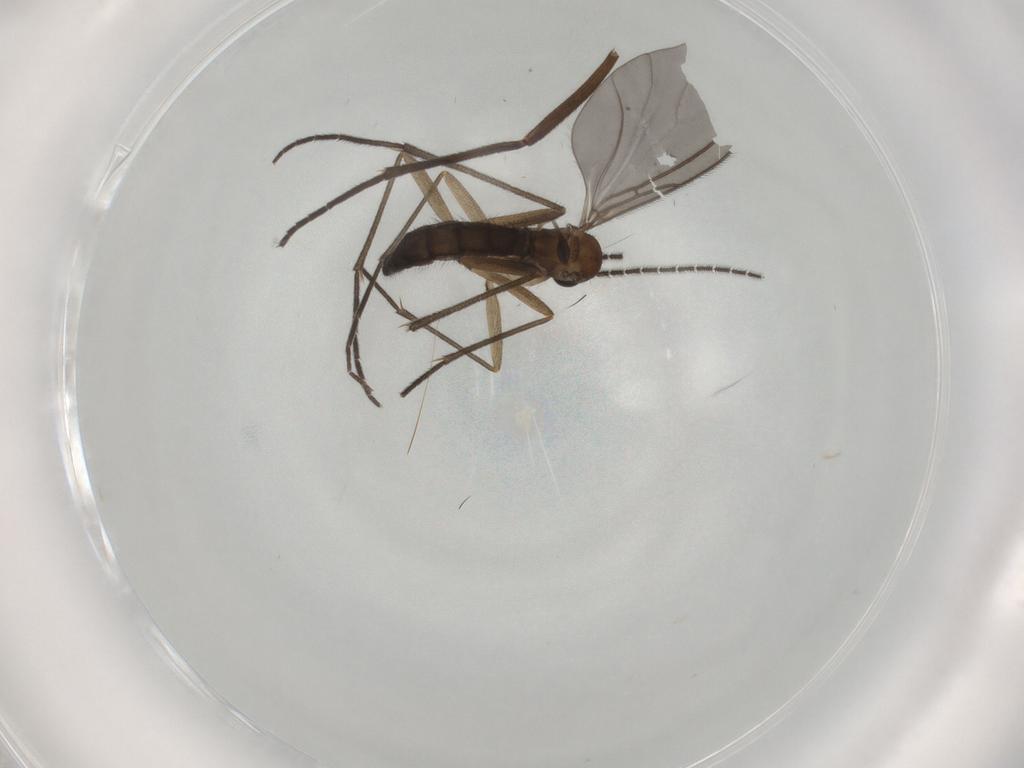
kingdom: Animalia
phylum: Arthropoda
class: Insecta
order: Diptera
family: Sciaridae
